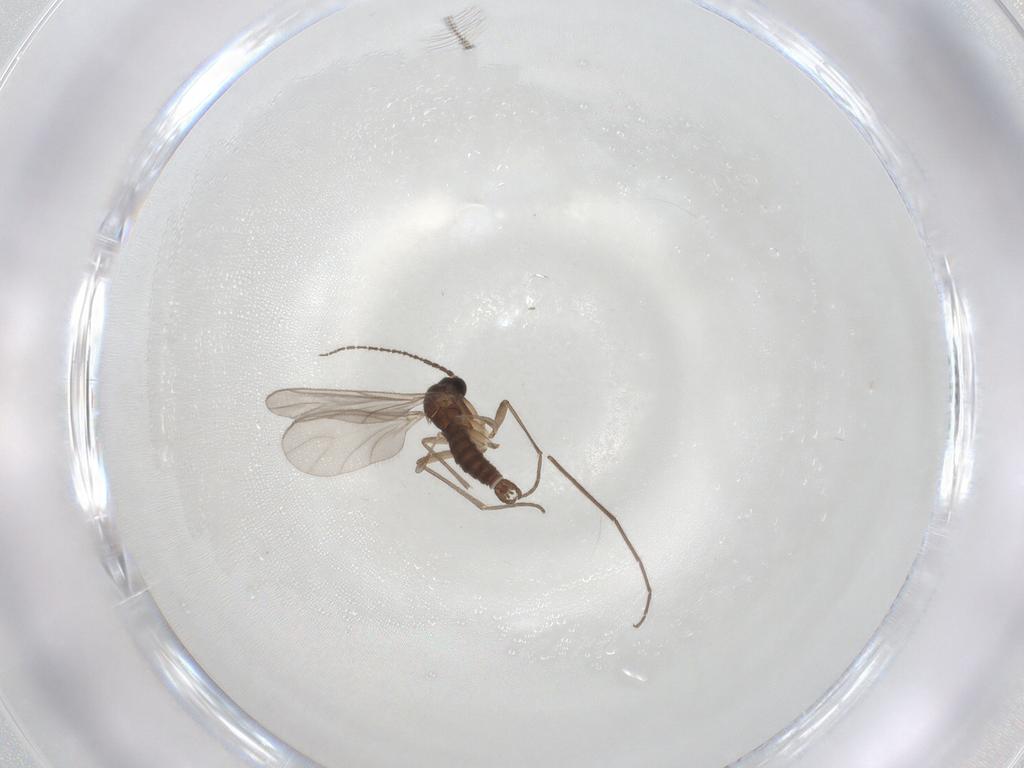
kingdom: Animalia
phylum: Arthropoda
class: Insecta
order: Diptera
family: Sciaridae
